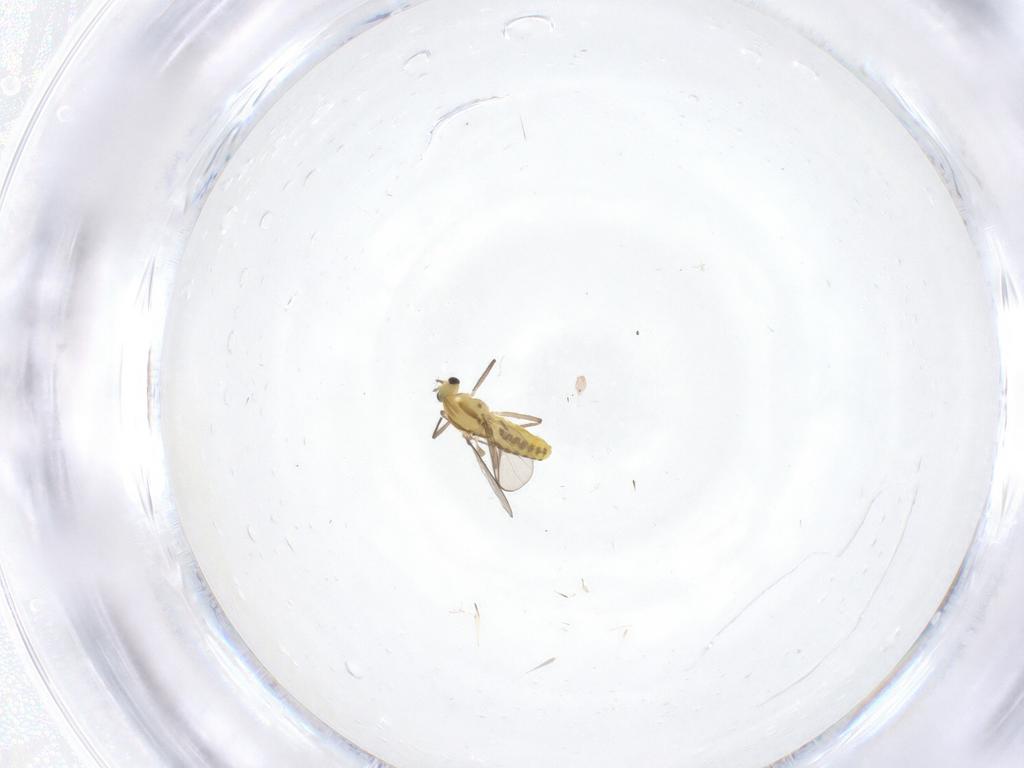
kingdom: Animalia
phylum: Arthropoda
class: Insecta
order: Diptera
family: Chironomidae
